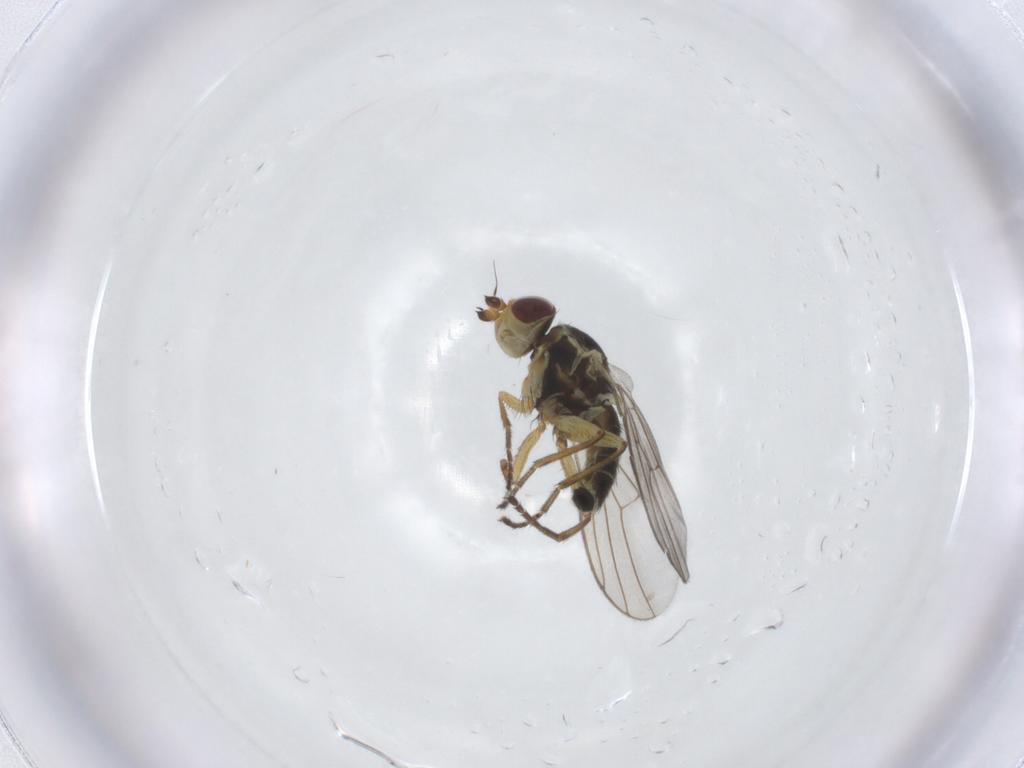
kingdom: Animalia
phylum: Arthropoda
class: Insecta
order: Diptera
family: Agromyzidae
